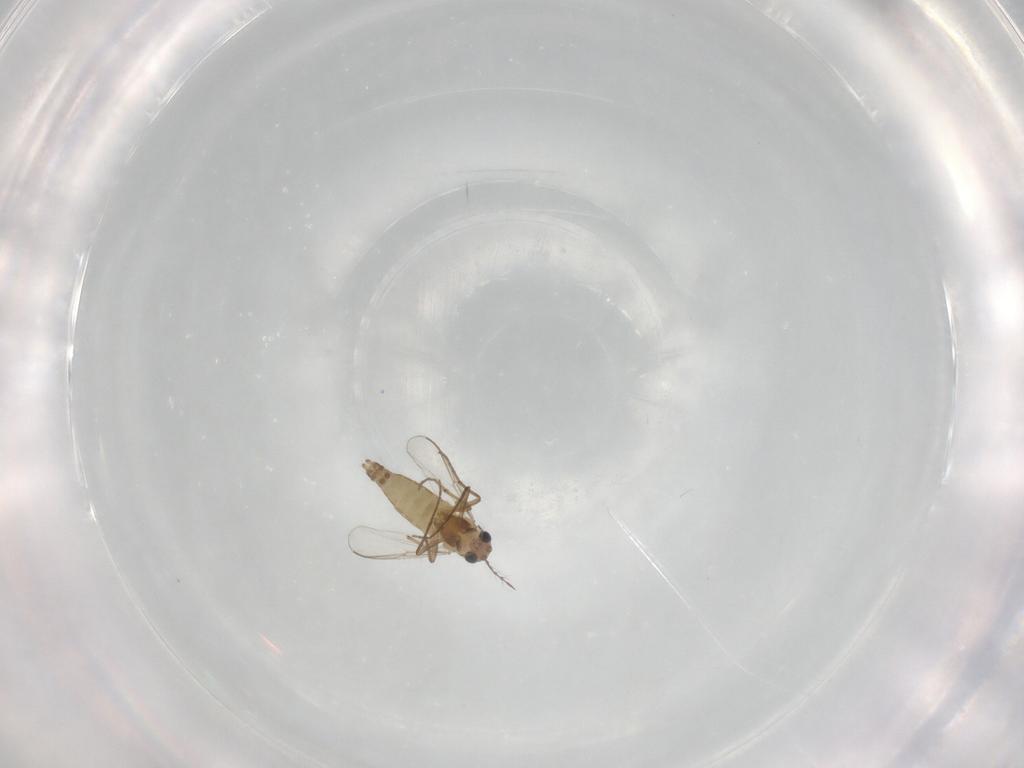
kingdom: Animalia
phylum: Arthropoda
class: Insecta
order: Diptera
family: Chironomidae
